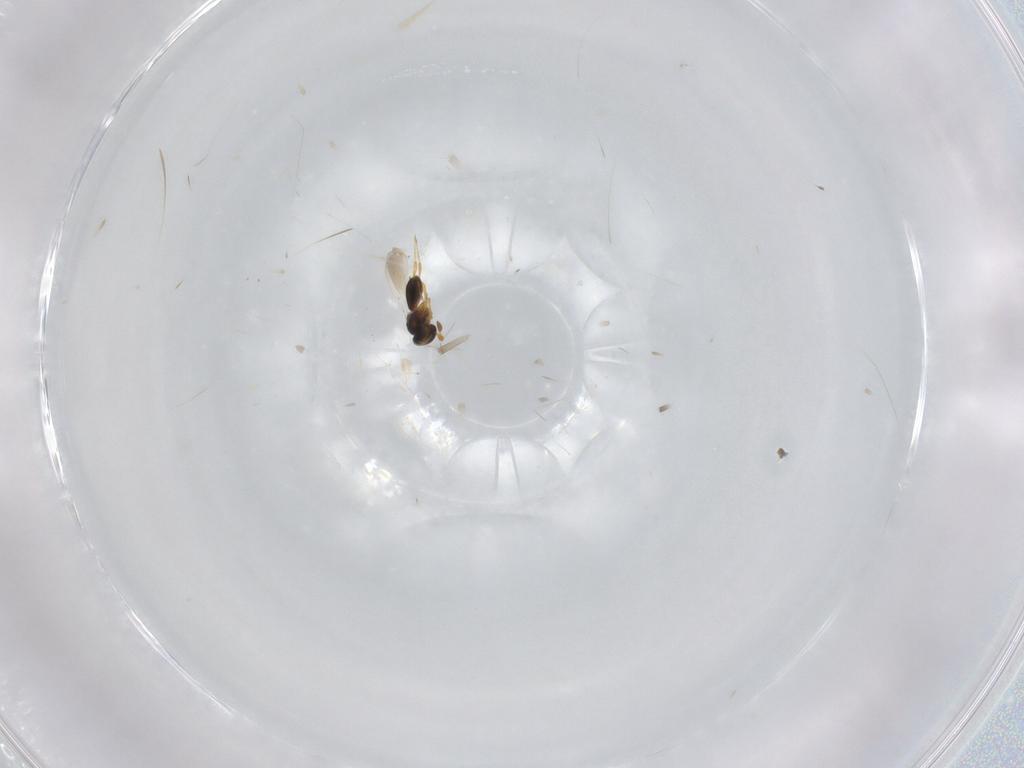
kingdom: Animalia
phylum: Arthropoda
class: Insecta
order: Hymenoptera
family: Platygastridae
